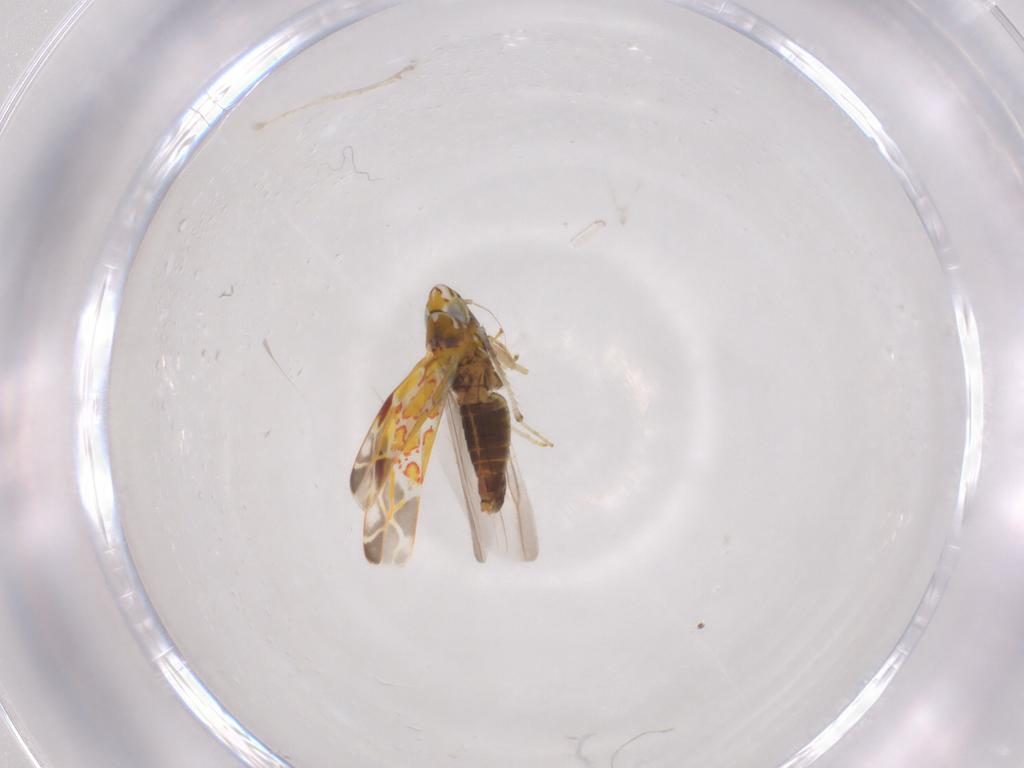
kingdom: Animalia
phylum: Arthropoda
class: Insecta
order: Hemiptera
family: Cicadellidae
